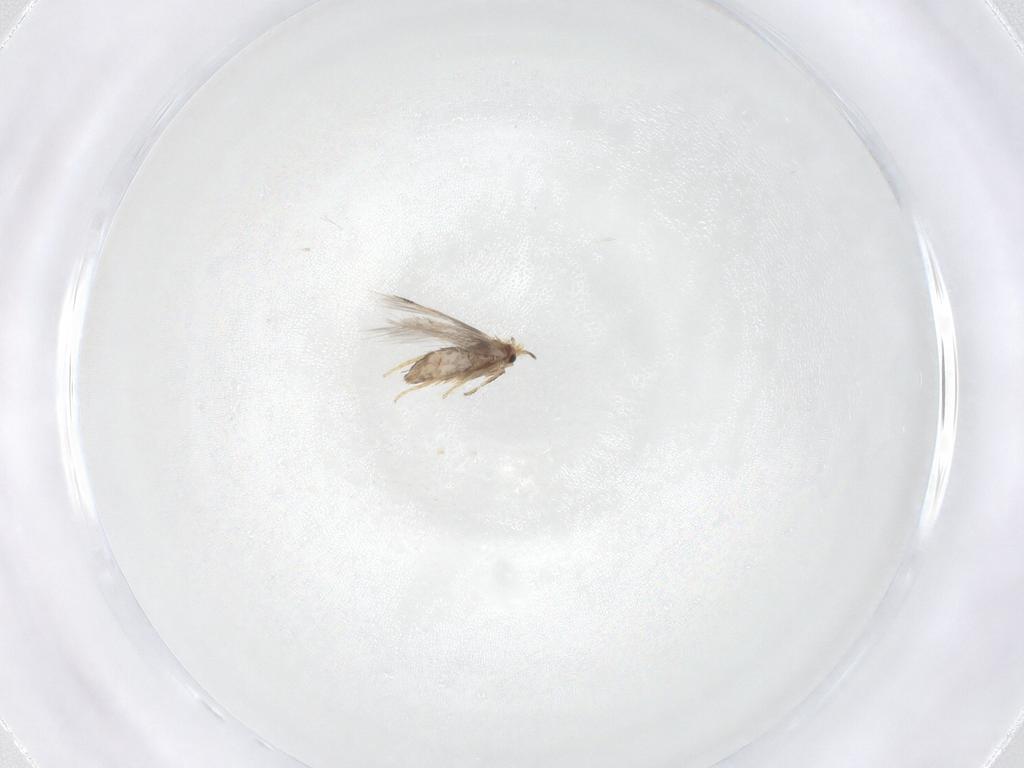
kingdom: Animalia
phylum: Arthropoda
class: Insecta
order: Lepidoptera
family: Nepticulidae
